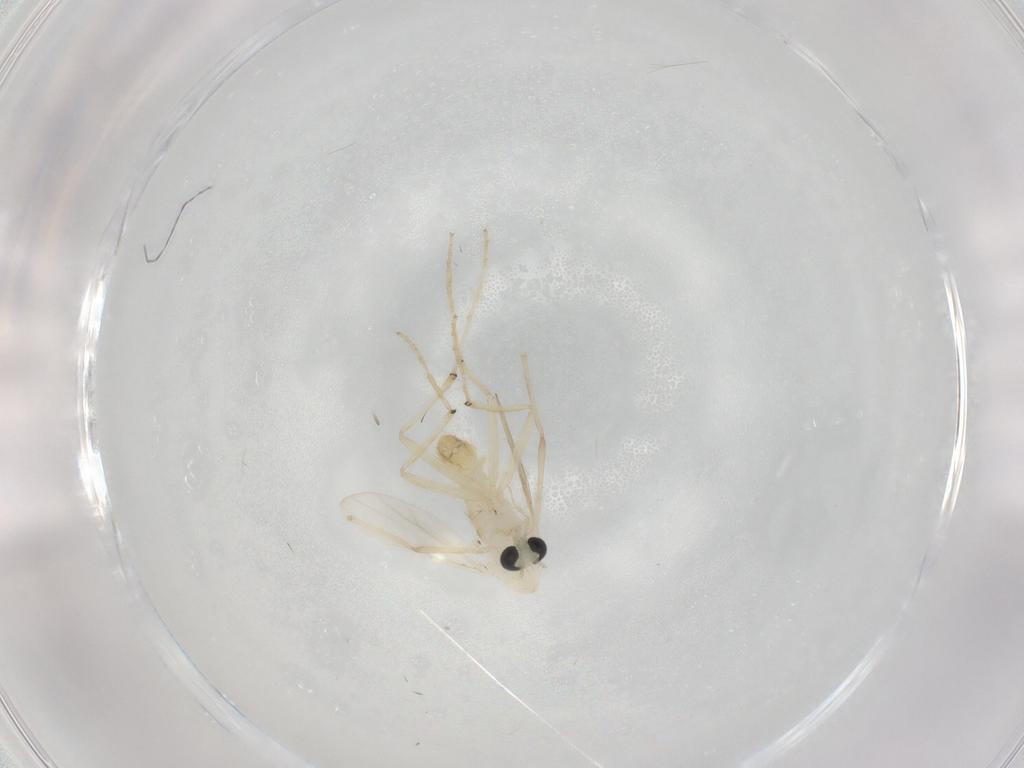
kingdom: Animalia
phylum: Arthropoda
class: Insecta
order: Diptera
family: Chironomidae
